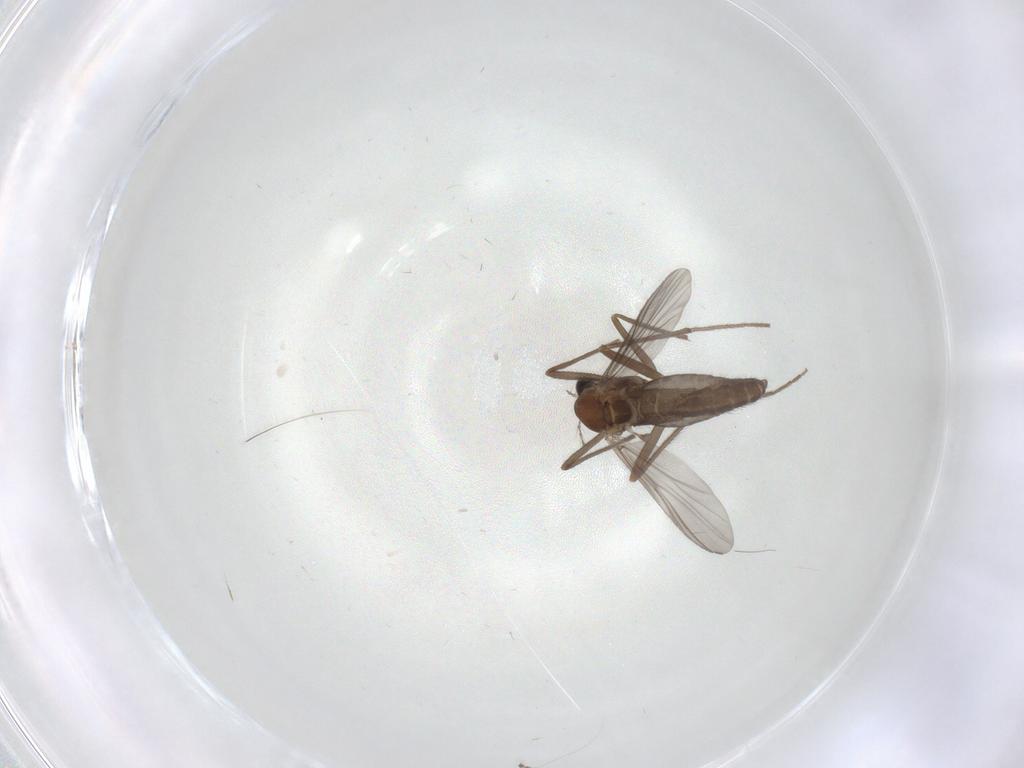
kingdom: Animalia
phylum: Arthropoda
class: Insecta
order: Diptera
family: Chironomidae
